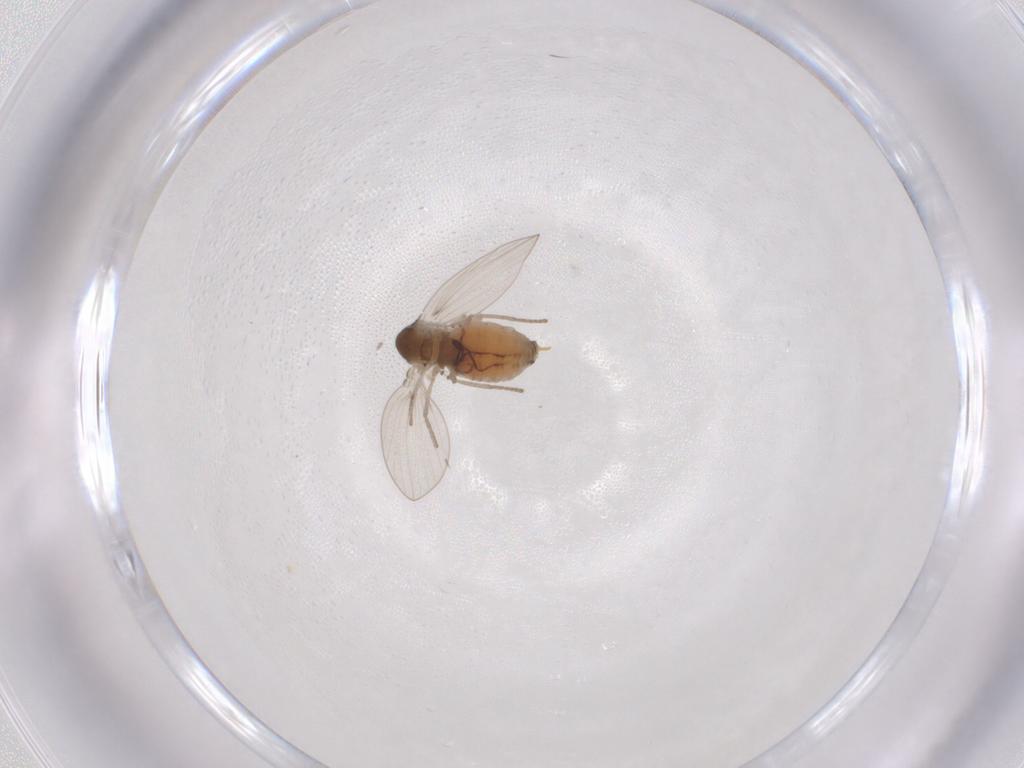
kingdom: Animalia
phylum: Arthropoda
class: Insecta
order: Diptera
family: Psychodidae
